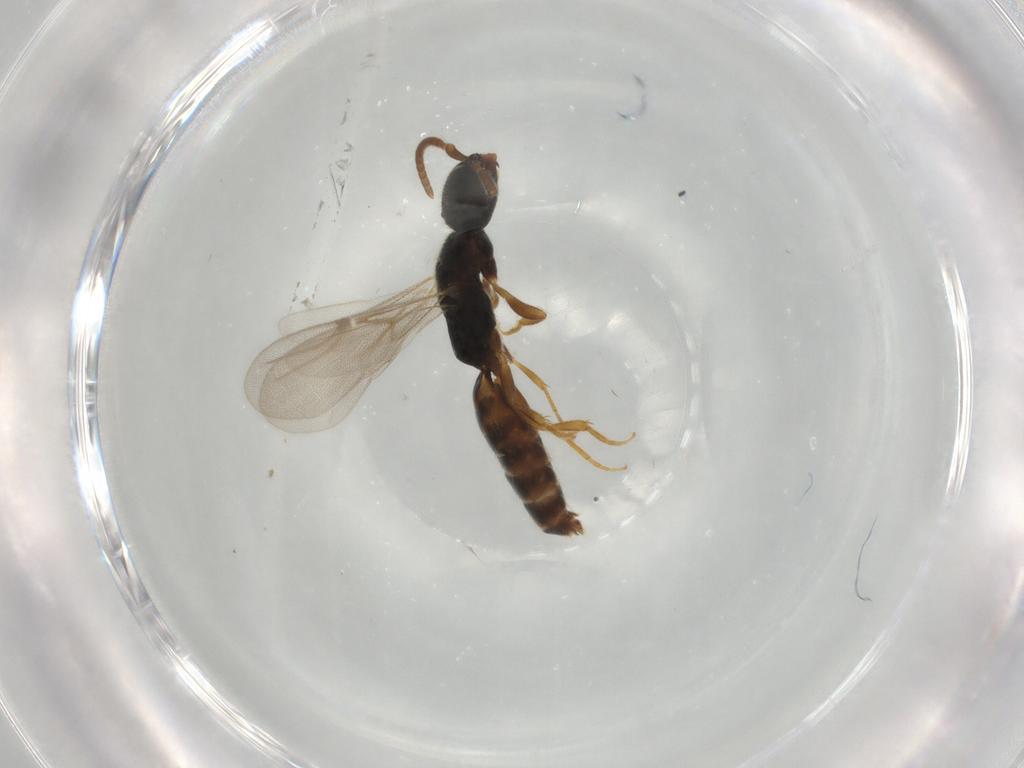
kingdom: Animalia
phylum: Arthropoda
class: Insecta
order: Hymenoptera
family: Bethylidae
